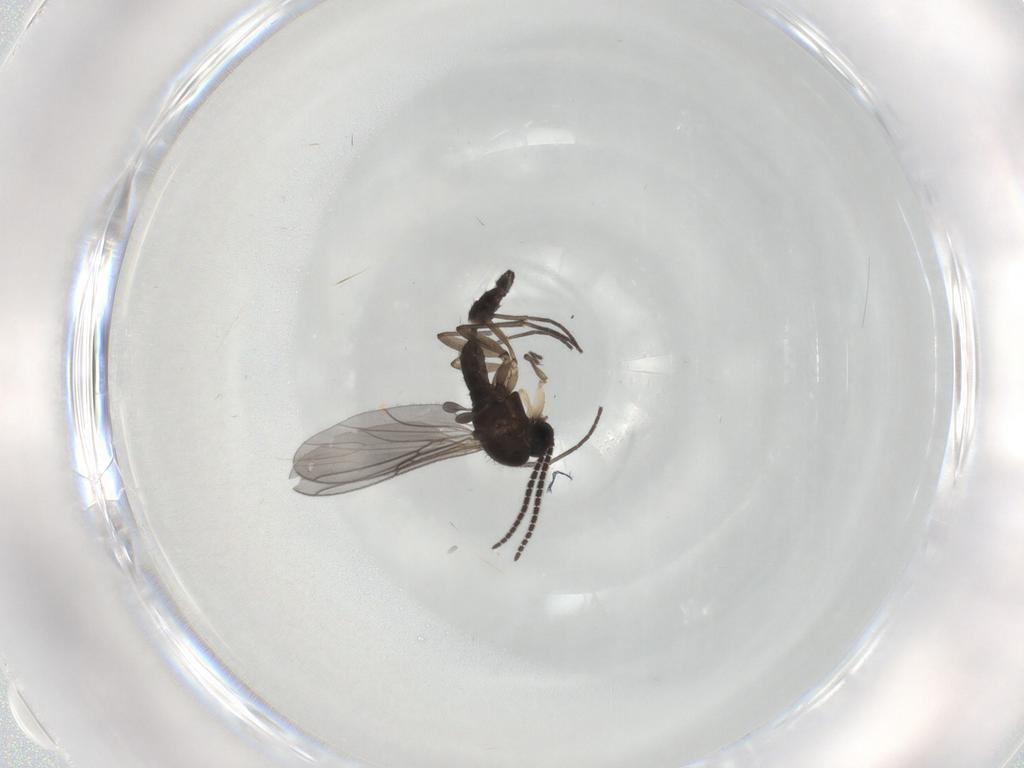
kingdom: Animalia
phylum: Arthropoda
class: Insecta
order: Diptera
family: Sciaridae
